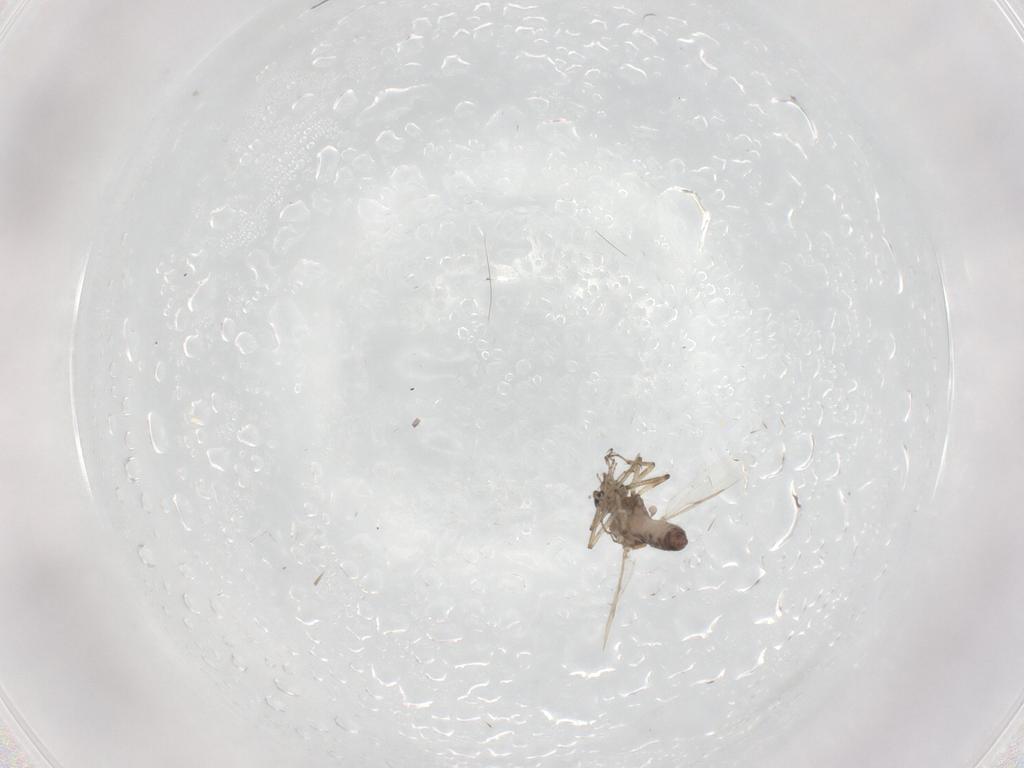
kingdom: Animalia
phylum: Arthropoda
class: Insecta
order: Diptera
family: Ceratopogonidae
